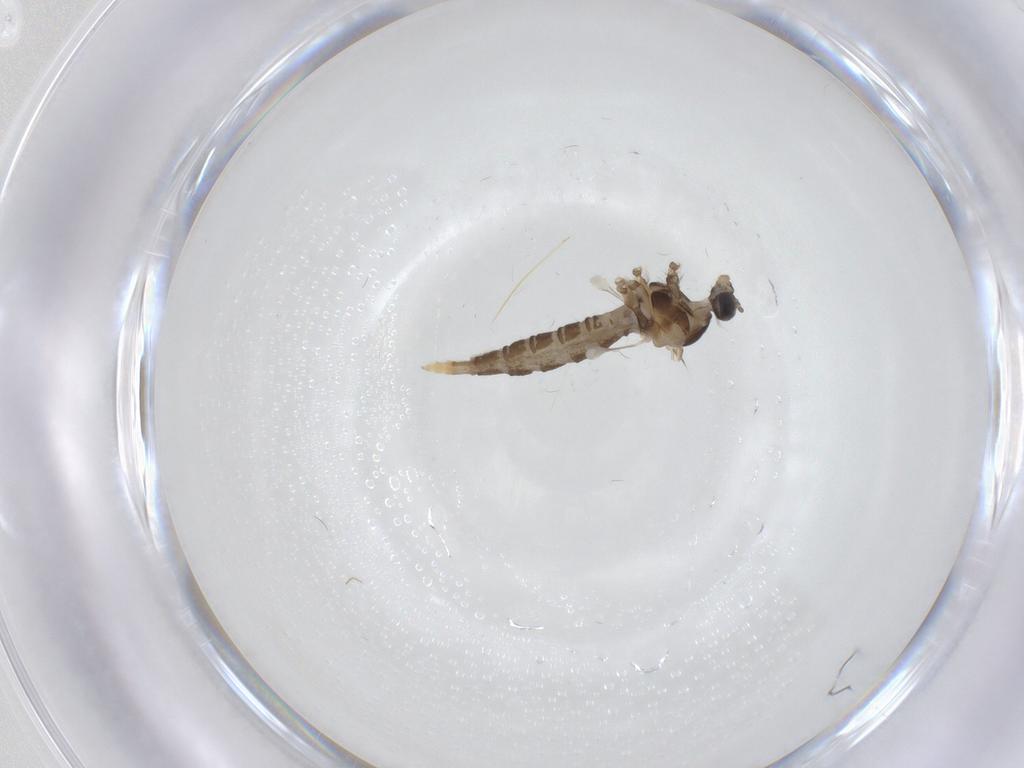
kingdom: Animalia
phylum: Arthropoda
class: Insecta
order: Diptera
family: Cecidomyiidae
